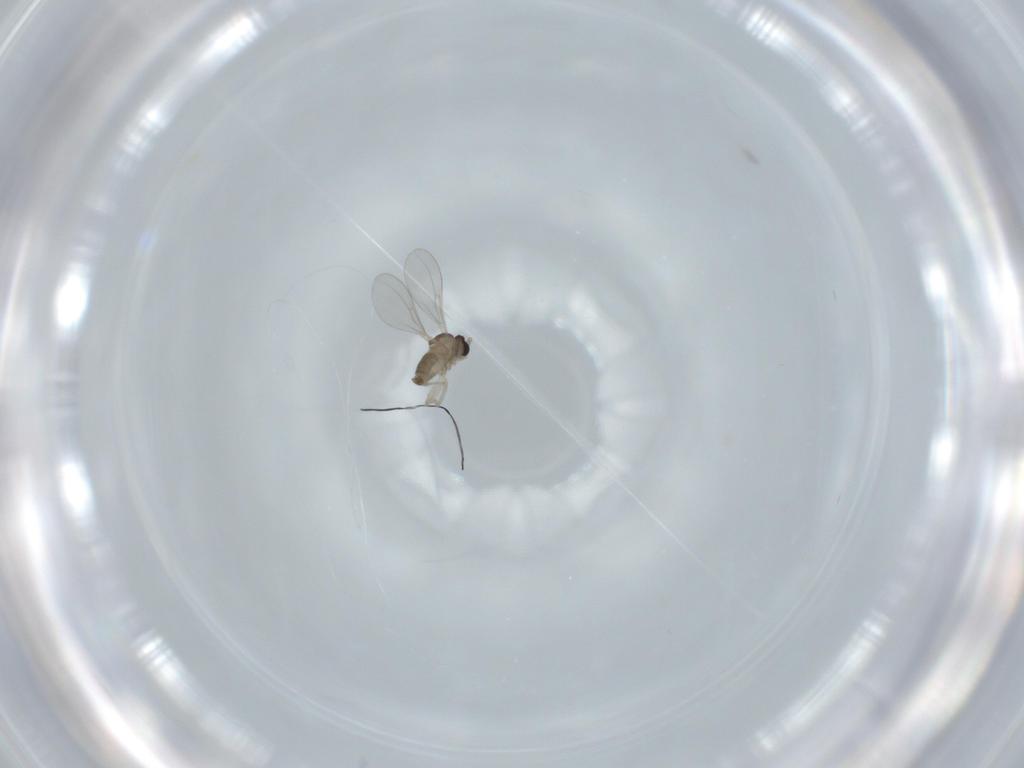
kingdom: Animalia
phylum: Arthropoda
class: Insecta
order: Diptera
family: Cecidomyiidae
